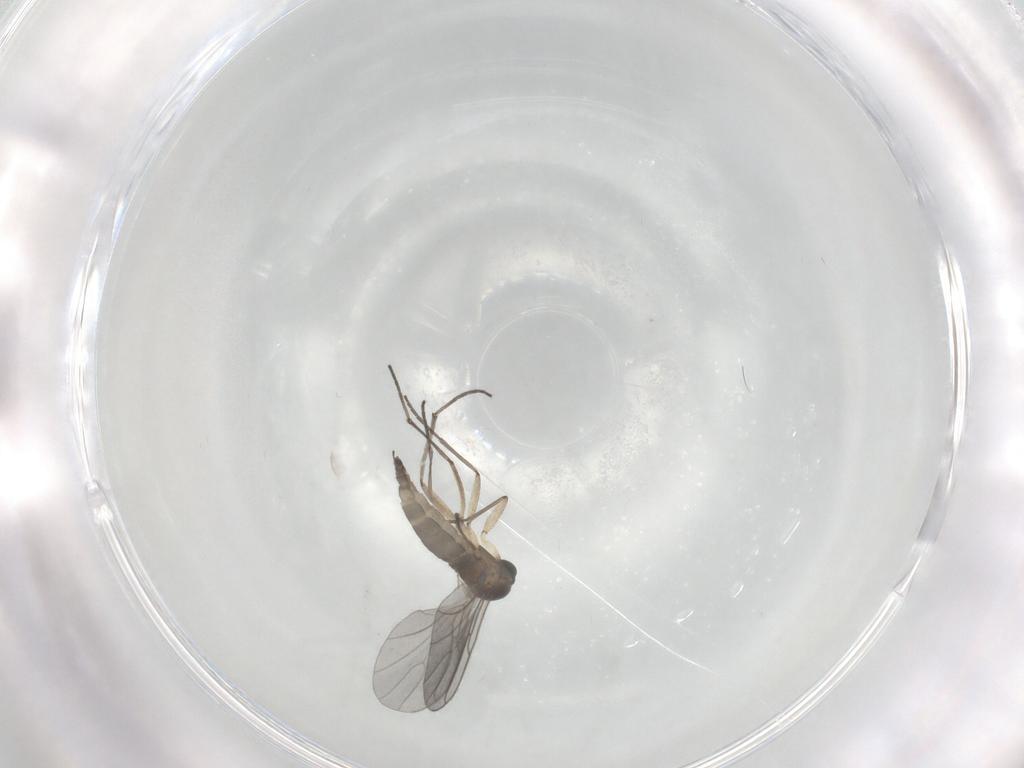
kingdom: Animalia
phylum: Arthropoda
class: Insecta
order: Diptera
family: Sciaridae
